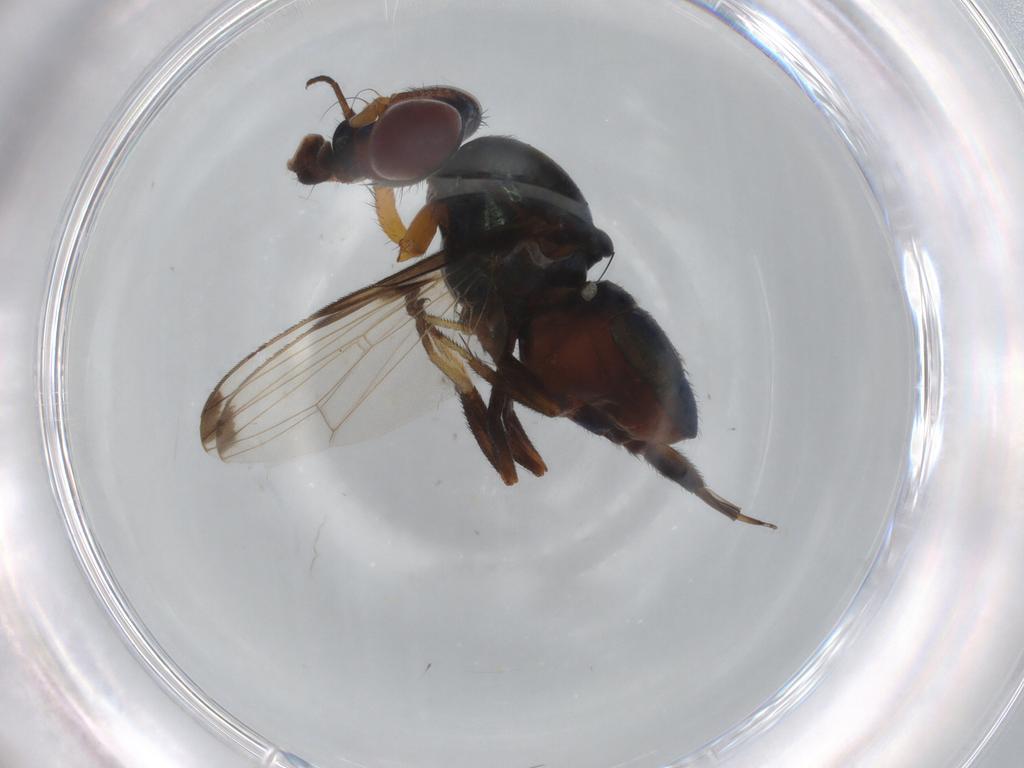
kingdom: Animalia
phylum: Arthropoda
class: Insecta
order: Diptera
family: Ulidiidae
